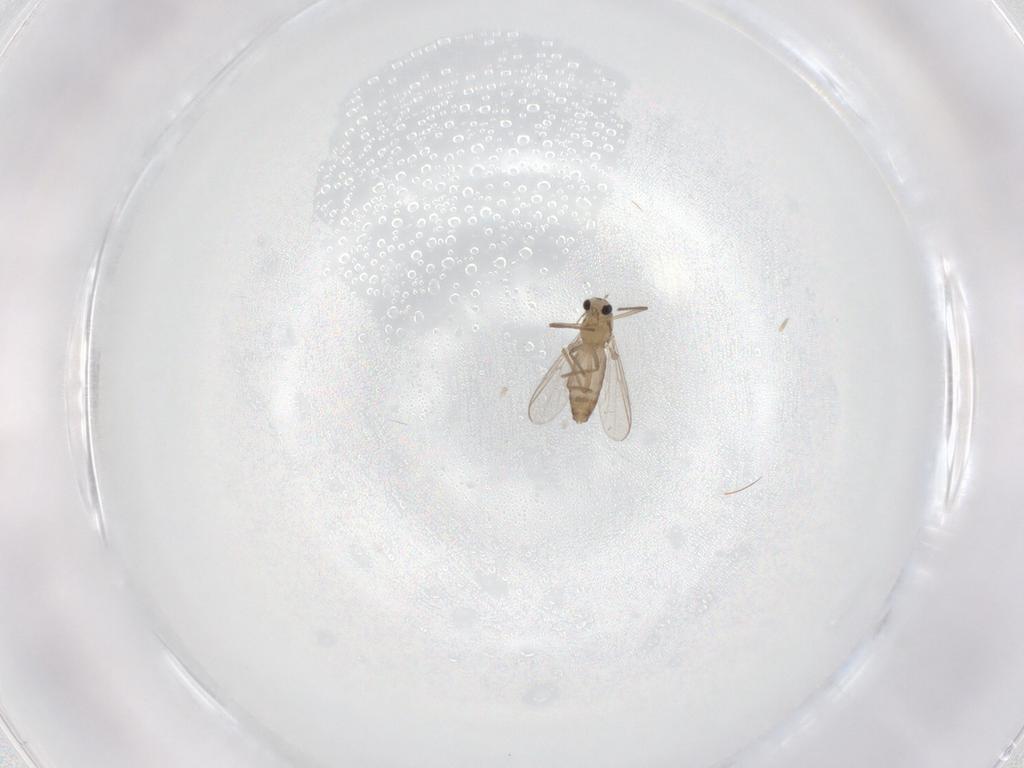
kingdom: Animalia
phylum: Arthropoda
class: Insecta
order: Diptera
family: Chironomidae
